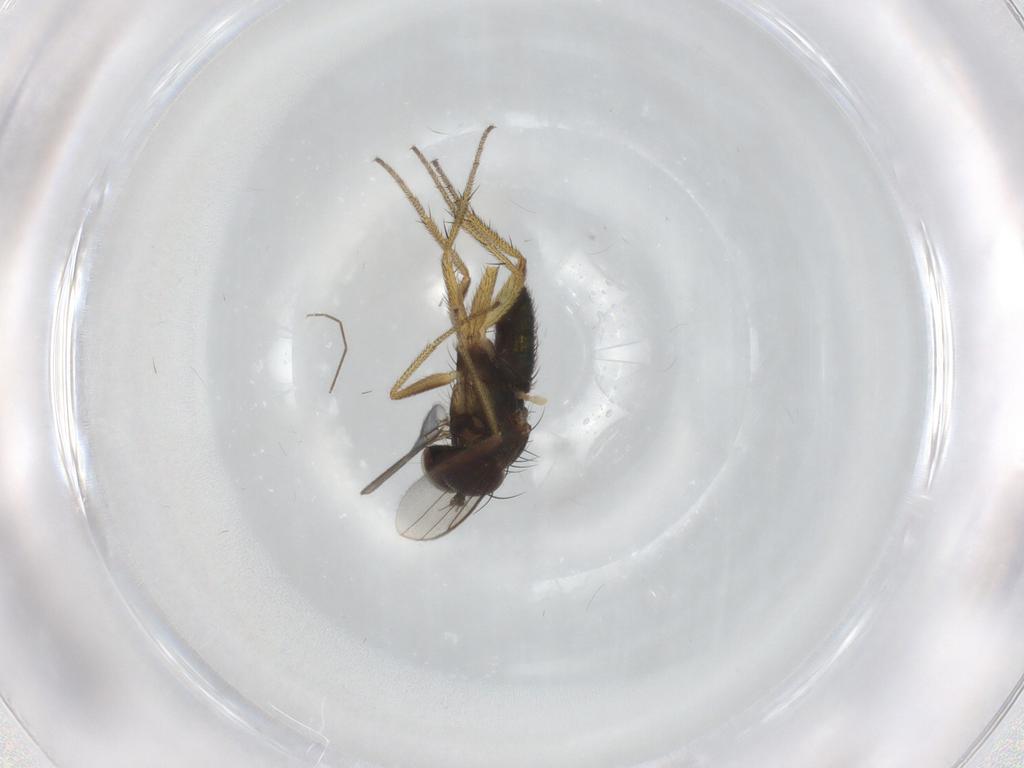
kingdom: Animalia
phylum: Arthropoda
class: Insecta
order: Diptera
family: Dolichopodidae
